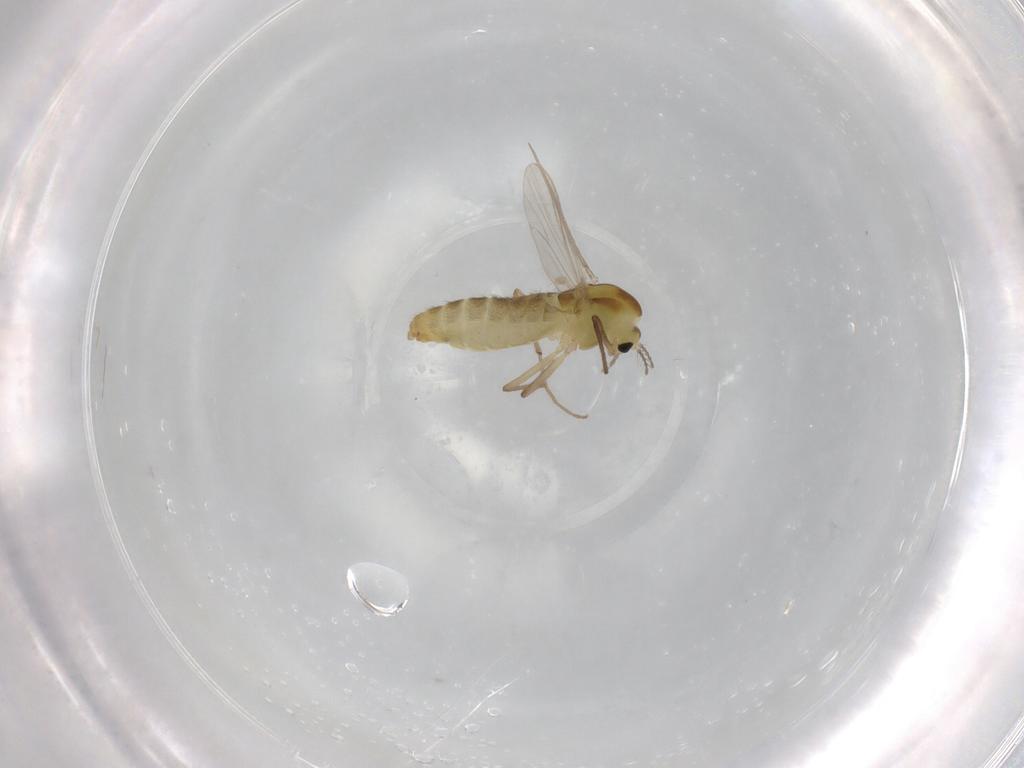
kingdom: Animalia
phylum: Arthropoda
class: Insecta
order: Diptera
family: Chironomidae
